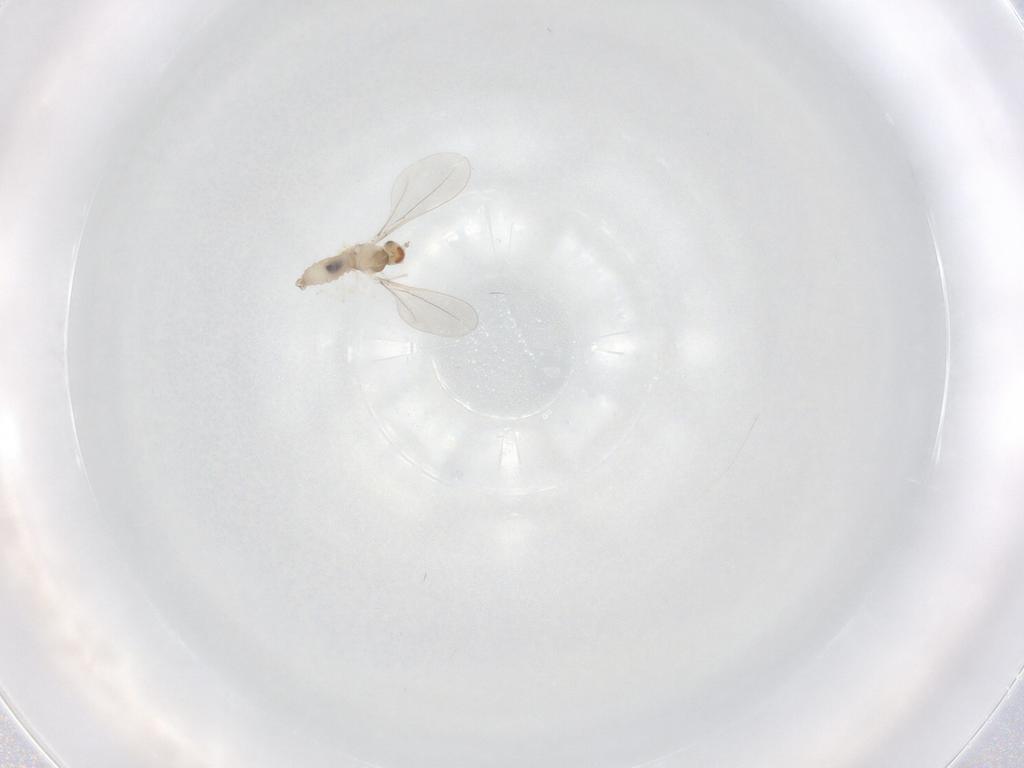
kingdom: Animalia
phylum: Arthropoda
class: Insecta
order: Diptera
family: Cecidomyiidae
